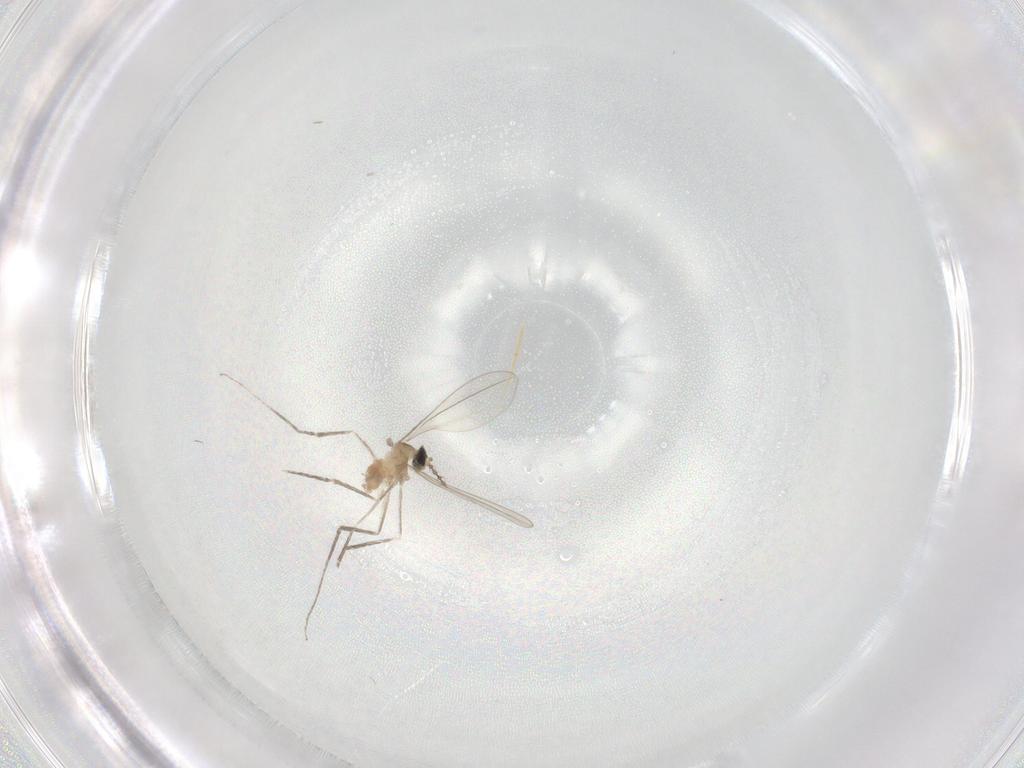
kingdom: Animalia
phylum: Arthropoda
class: Insecta
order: Diptera
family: Cecidomyiidae
